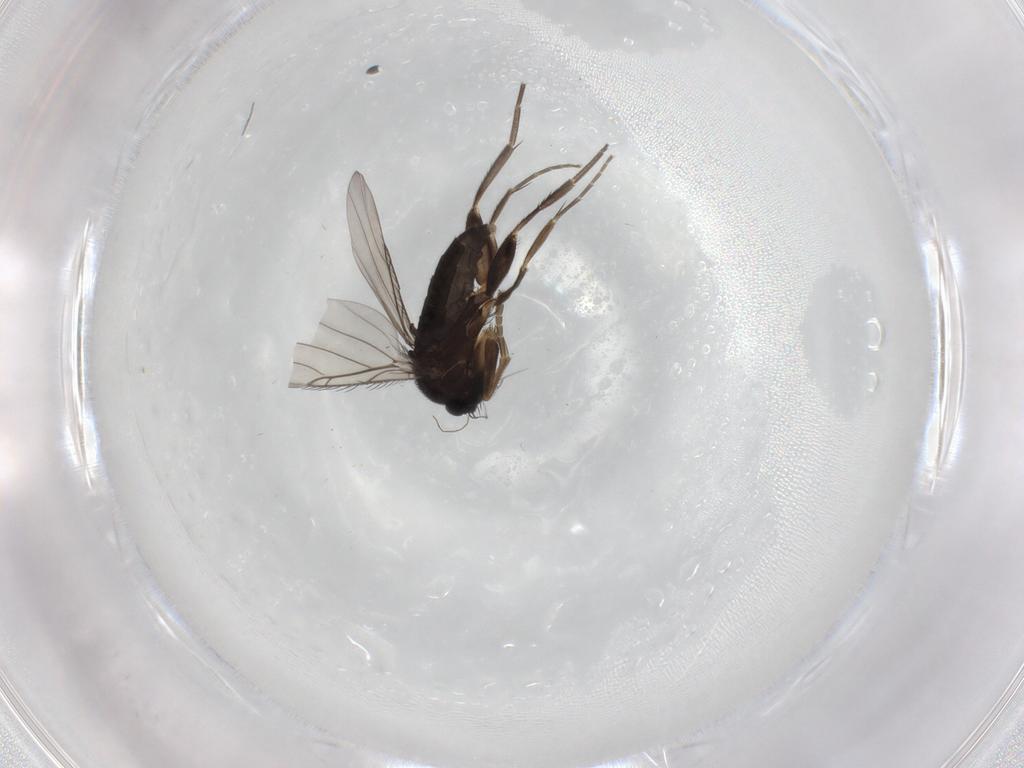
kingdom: Animalia
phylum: Arthropoda
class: Insecta
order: Diptera
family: Phoridae
